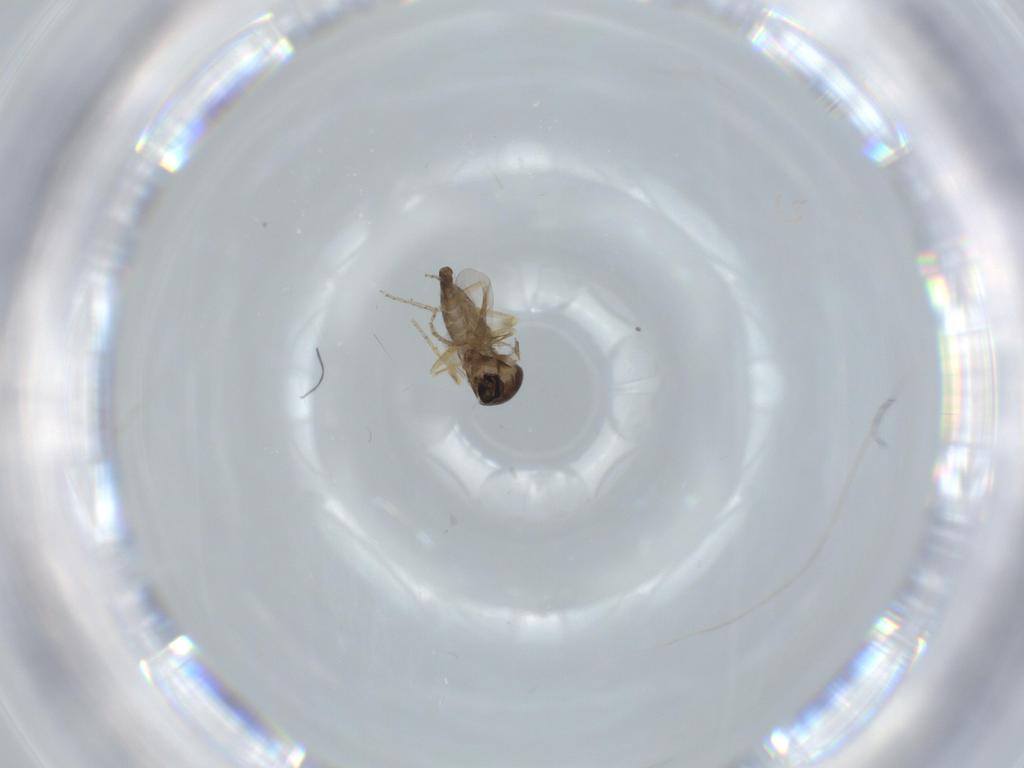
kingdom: Animalia
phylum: Arthropoda
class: Insecta
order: Diptera
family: Ceratopogonidae
